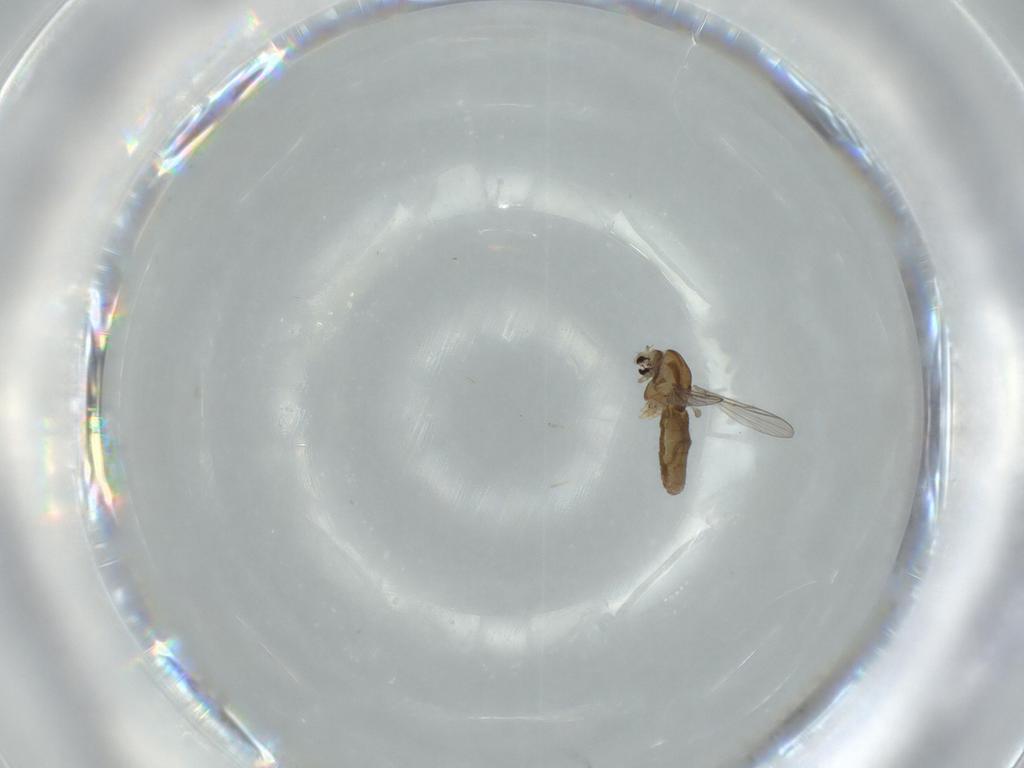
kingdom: Animalia
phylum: Arthropoda
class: Insecta
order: Diptera
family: Chironomidae
